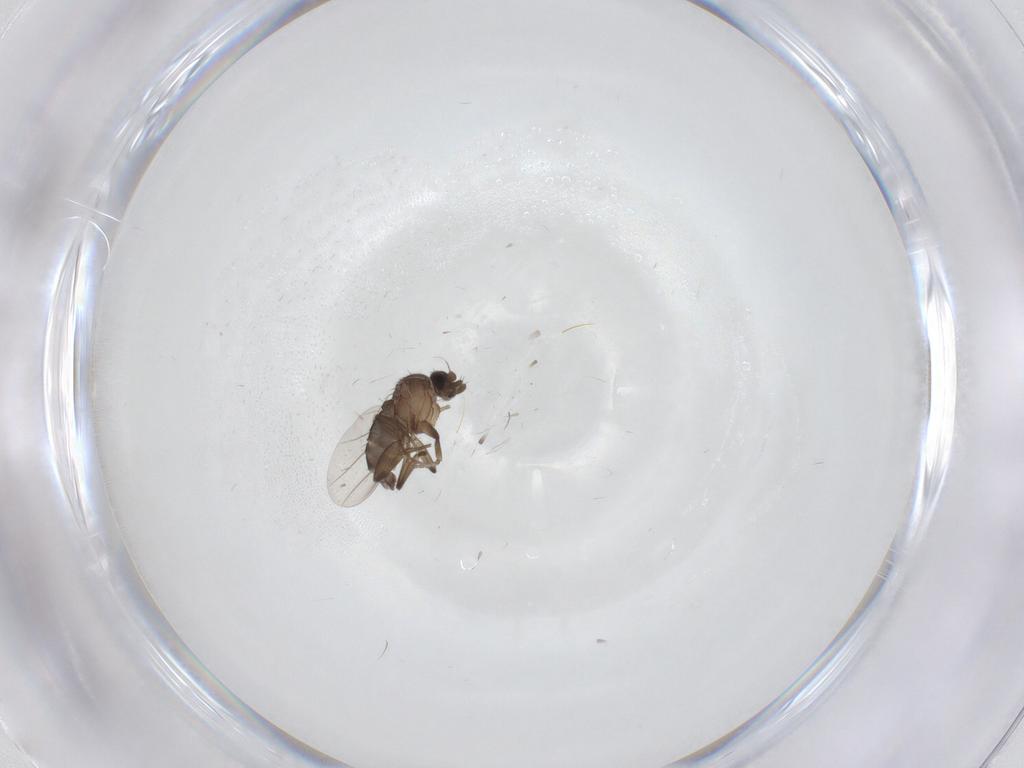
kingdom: Animalia
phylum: Arthropoda
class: Insecta
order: Diptera
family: Phoridae
